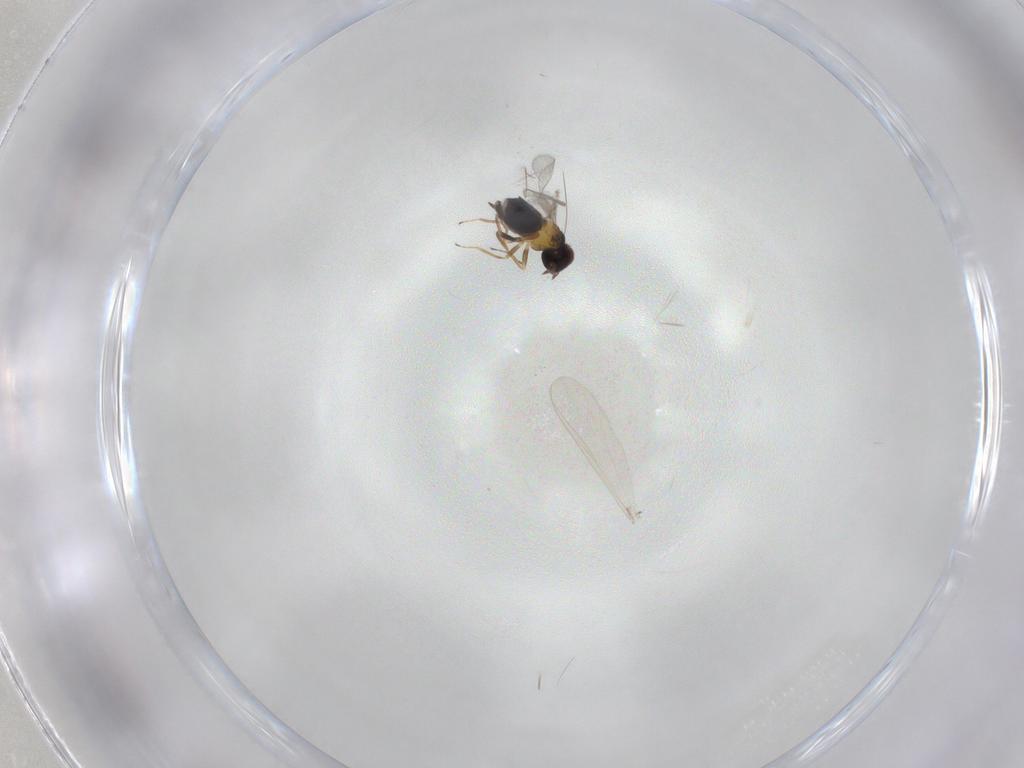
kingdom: Animalia
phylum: Arthropoda
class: Insecta
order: Hymenoptera
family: Trichogrammatidae
